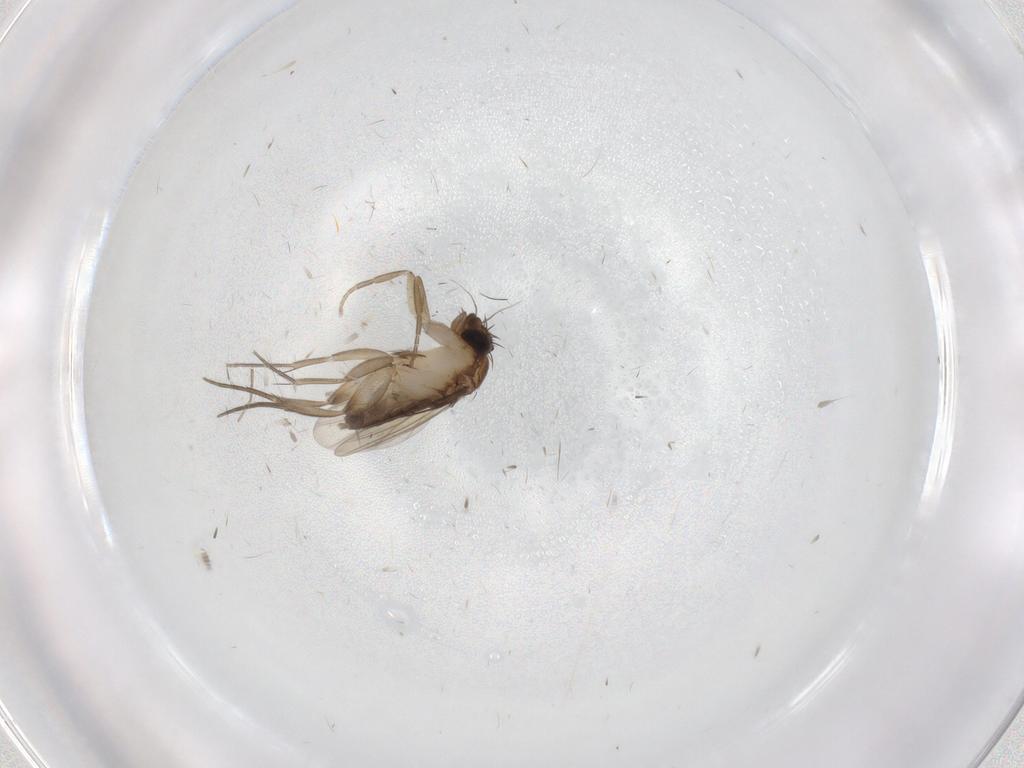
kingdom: Animalia
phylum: Arthropoda
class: Insecta
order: Diptera
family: Phoridae
